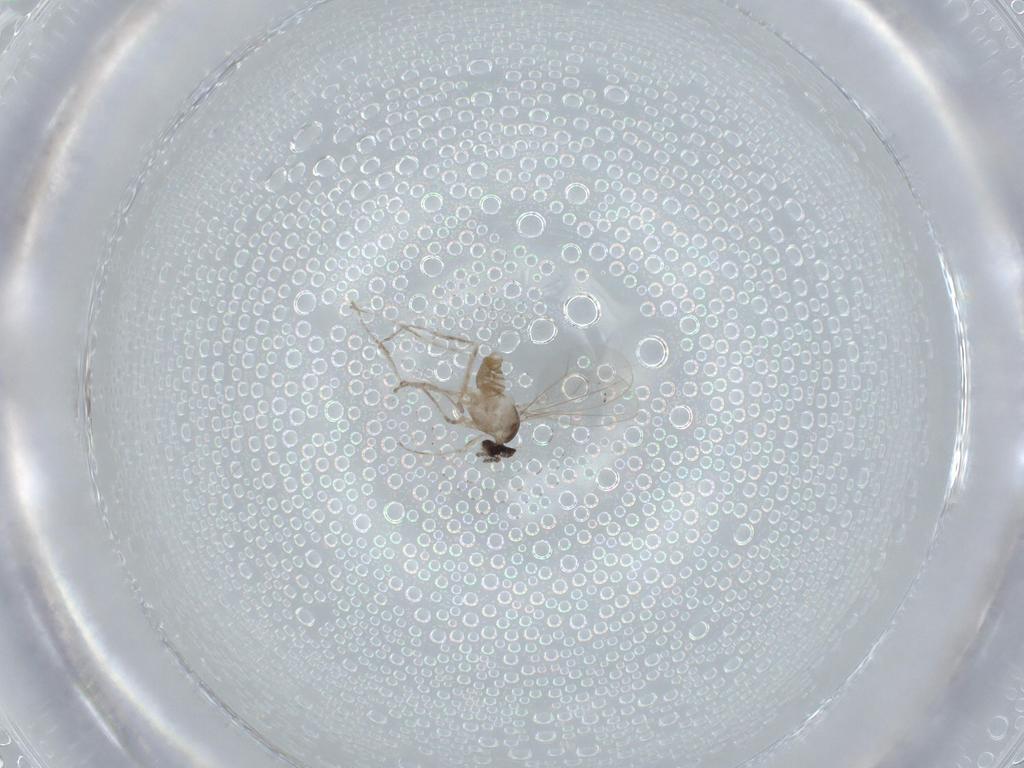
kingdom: Animalia
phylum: Arthropoda
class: Insecta
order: Diptera
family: Cecidomyiidae
